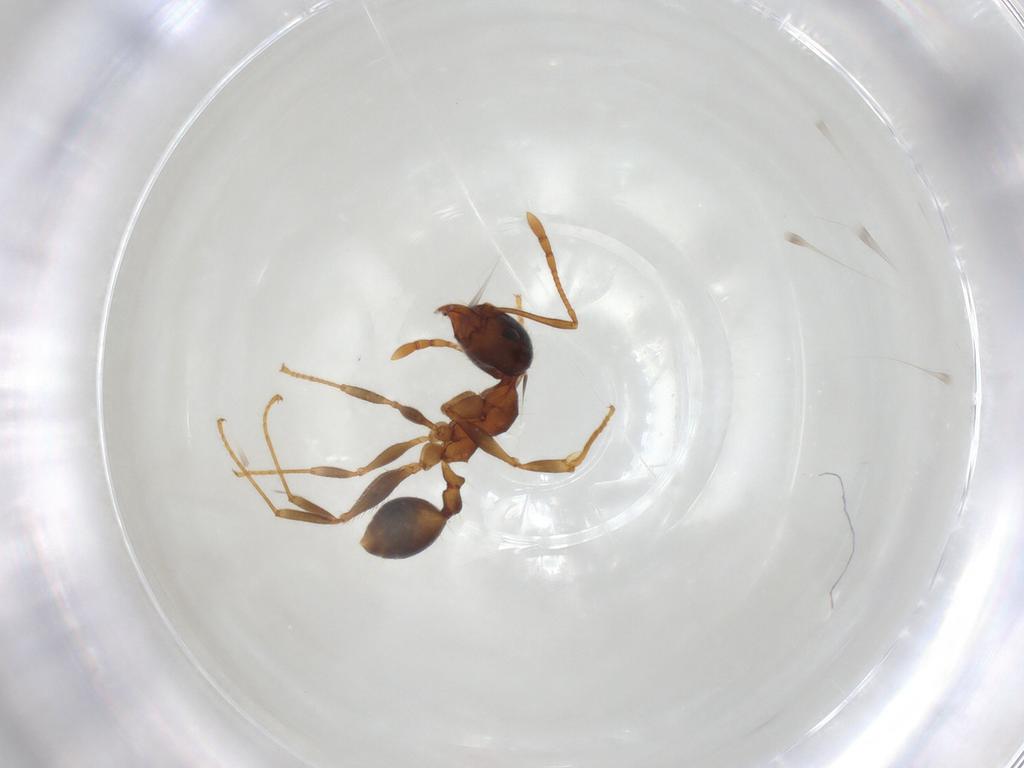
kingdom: Animalia
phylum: Arthropoda
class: Insecta
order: Hymenoptera
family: Formicidae
